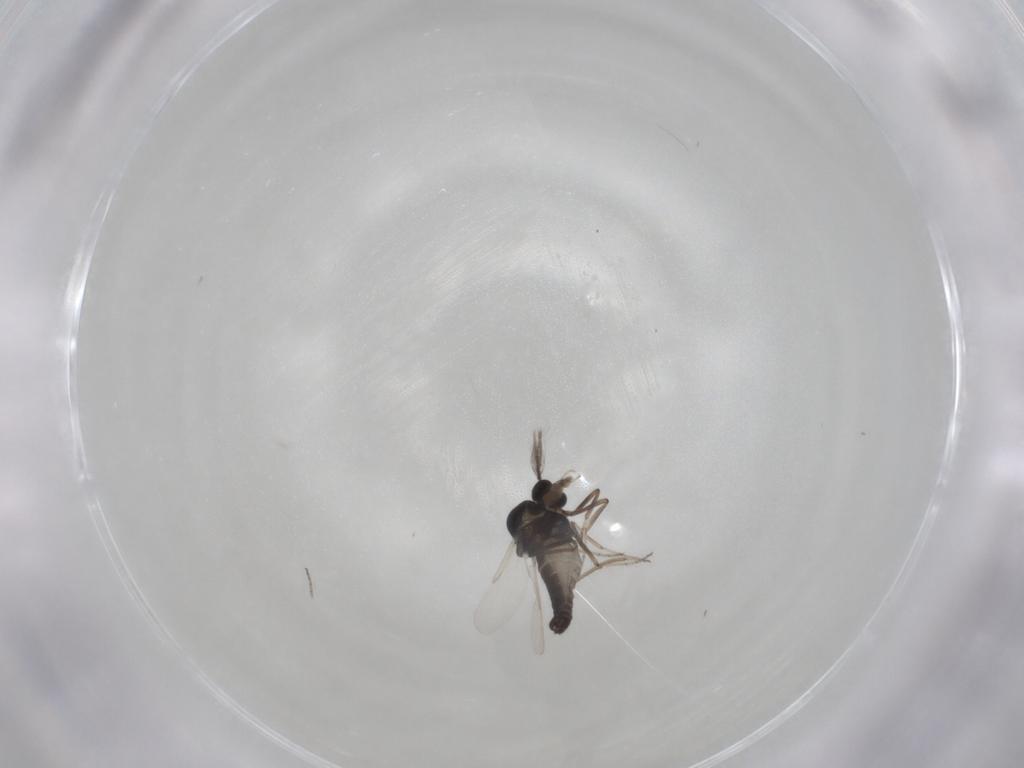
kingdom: Animalia
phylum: Arthropoda
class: Insecta
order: Diptera
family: Ceratopogonidae
